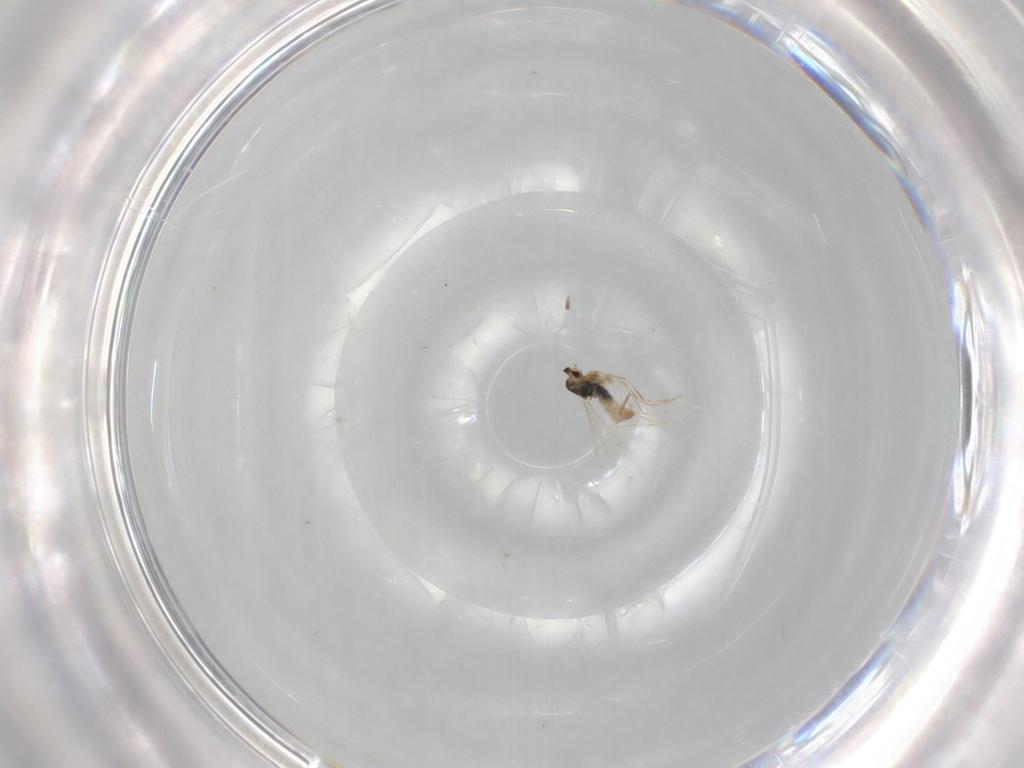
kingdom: Animalia
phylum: Arthropoda
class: Insecta
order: Diptera
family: Cecidomyiidae
